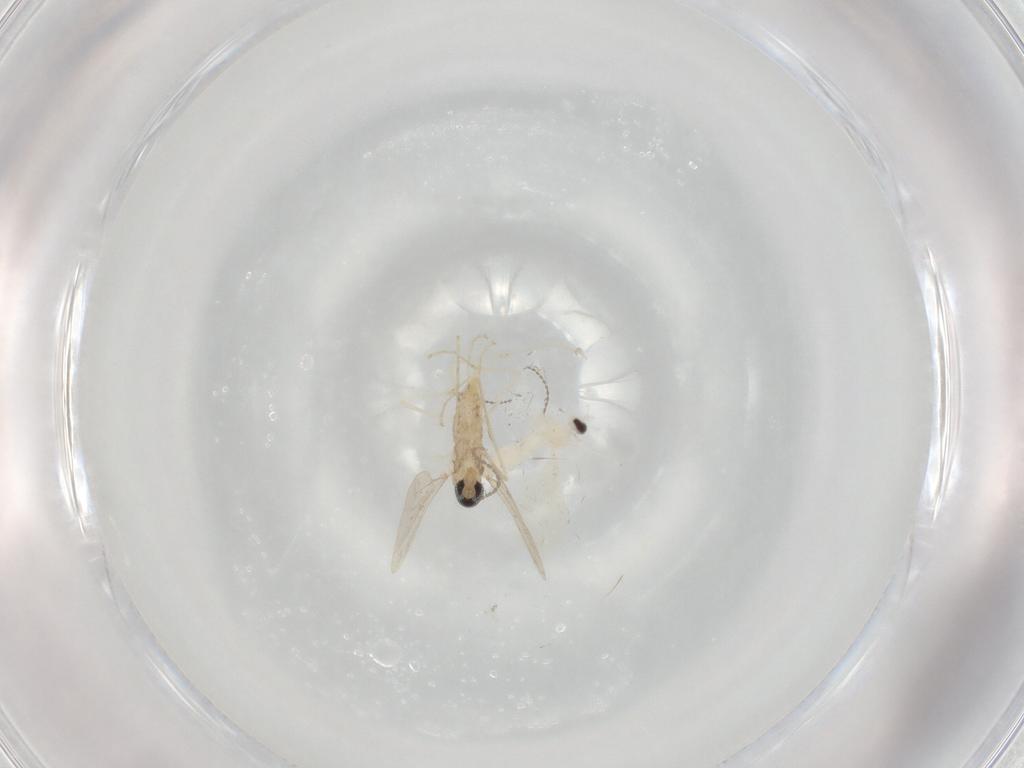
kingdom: Animalia
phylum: Arthropoda
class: Insecta
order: Diptera
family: Cecidomyiidae
